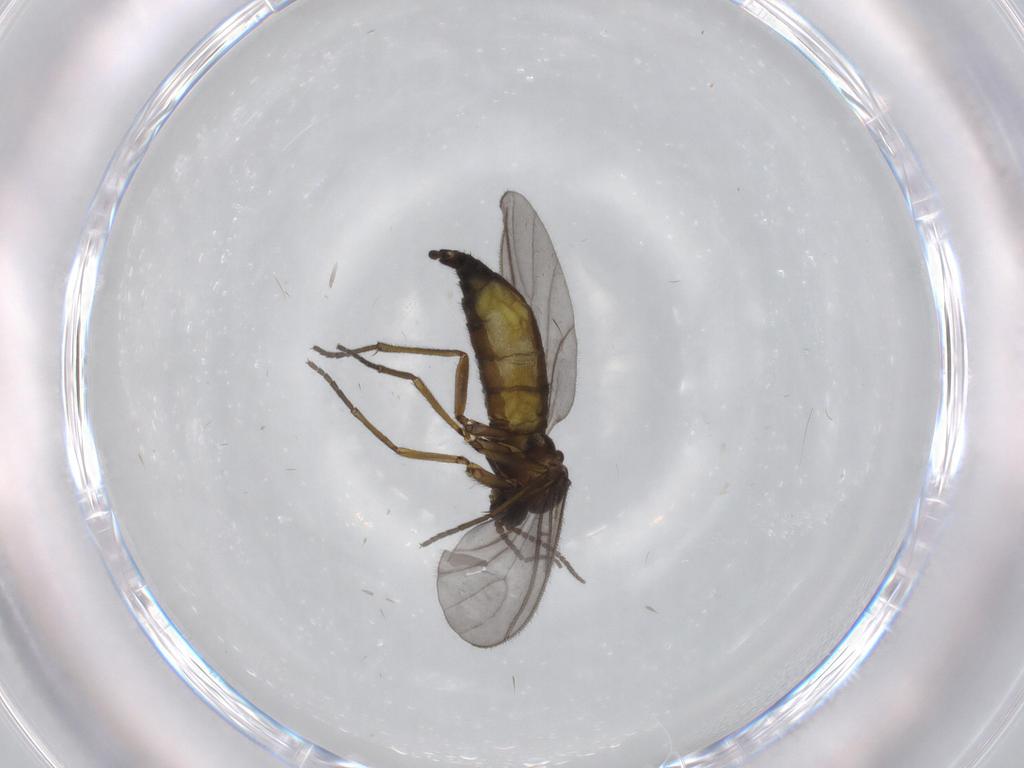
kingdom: Animalia
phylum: Arthropoda
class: Insecta
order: Diptera
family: Chironomidae
